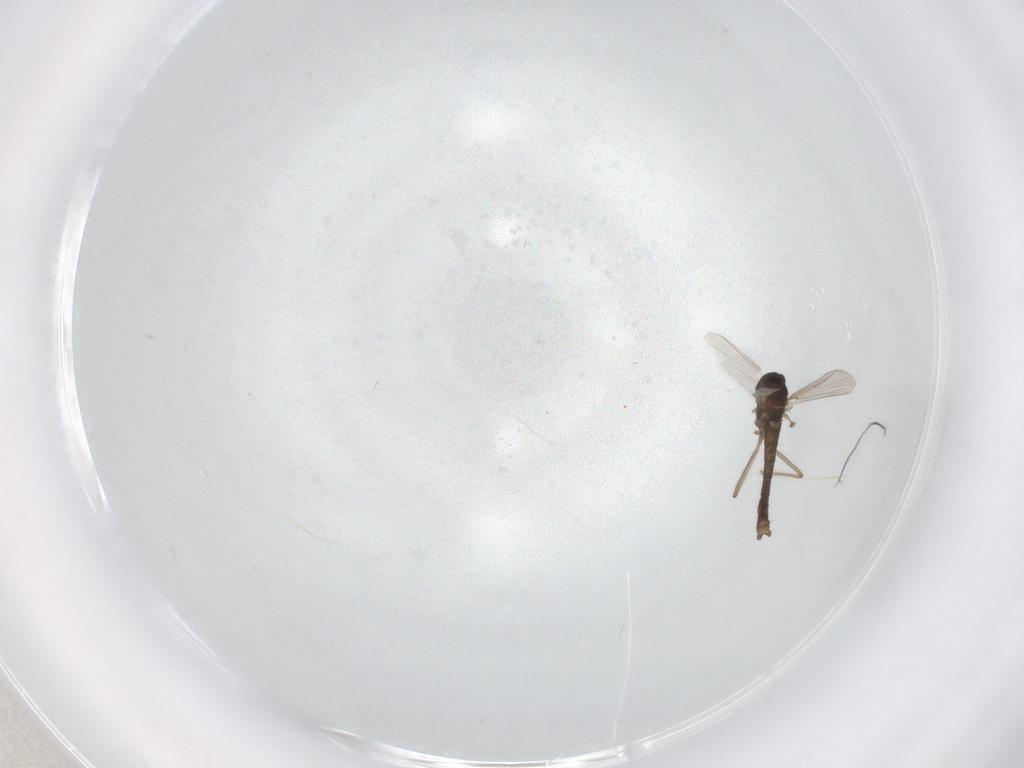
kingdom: Animalia
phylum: Arthropoda
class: Insecta
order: Diptera
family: Chironomidae
